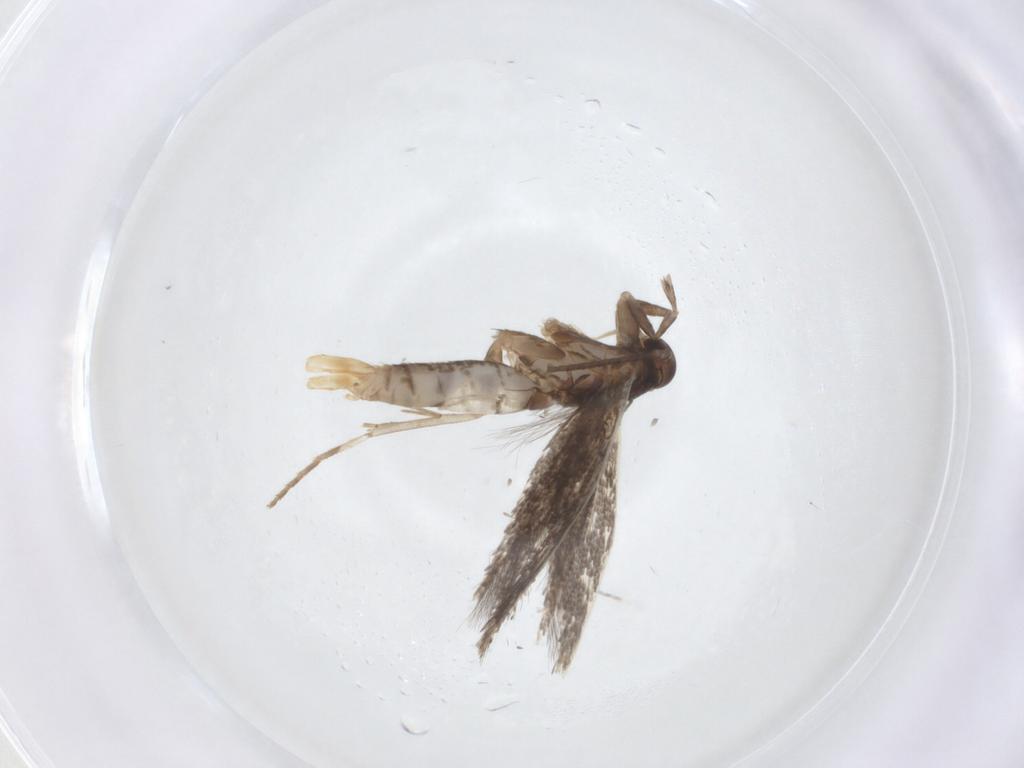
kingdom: Animalia
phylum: Arthropoda
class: Insecta
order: Lepidoptera
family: Elachistidae
